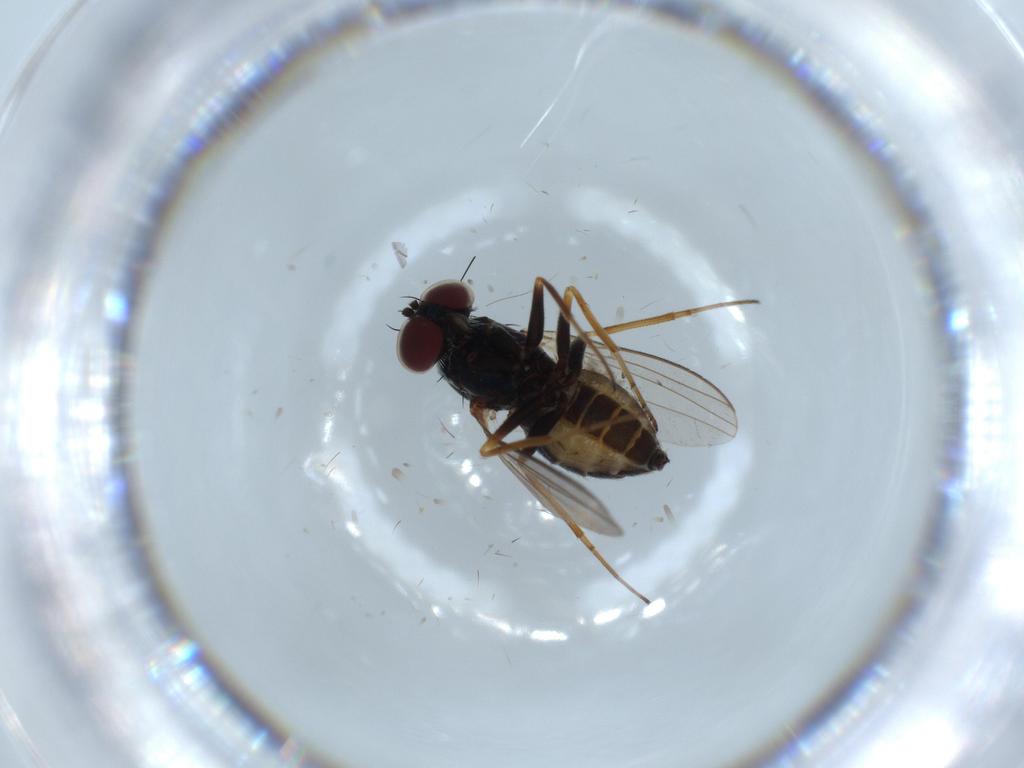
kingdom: Animalia
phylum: Arthropoda
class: Insecta
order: Diptera
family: Dolichopodidae
